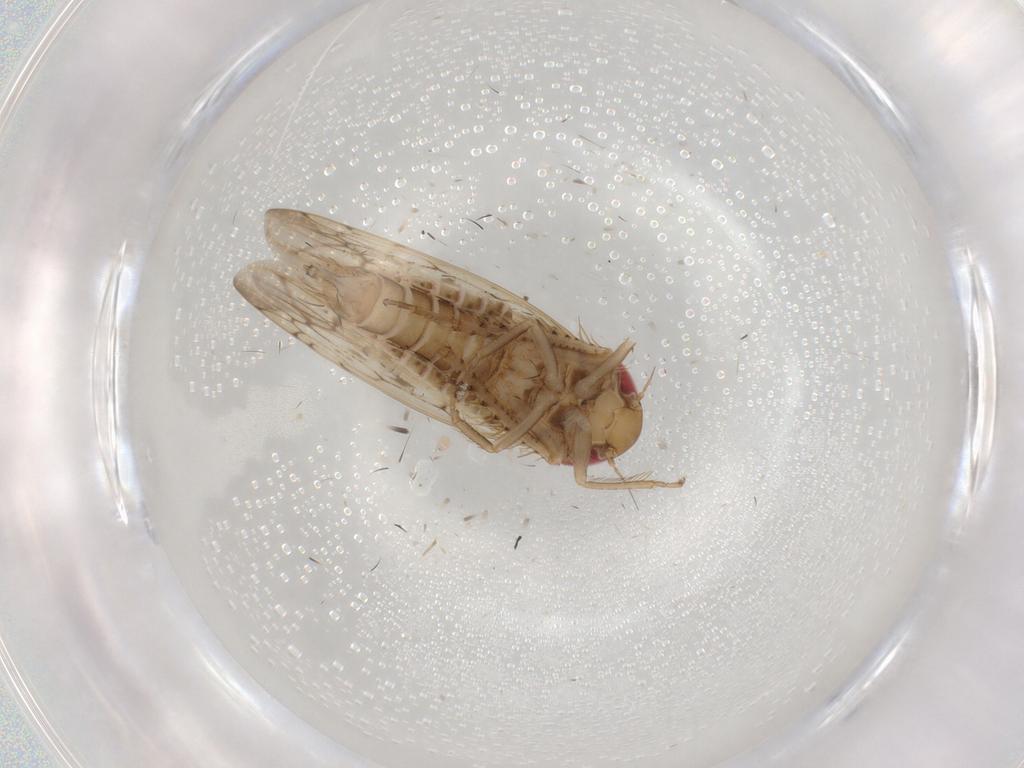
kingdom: Animalia
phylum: Arthropoda
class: Insecta
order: Hemiptera
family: Cicadellidae
